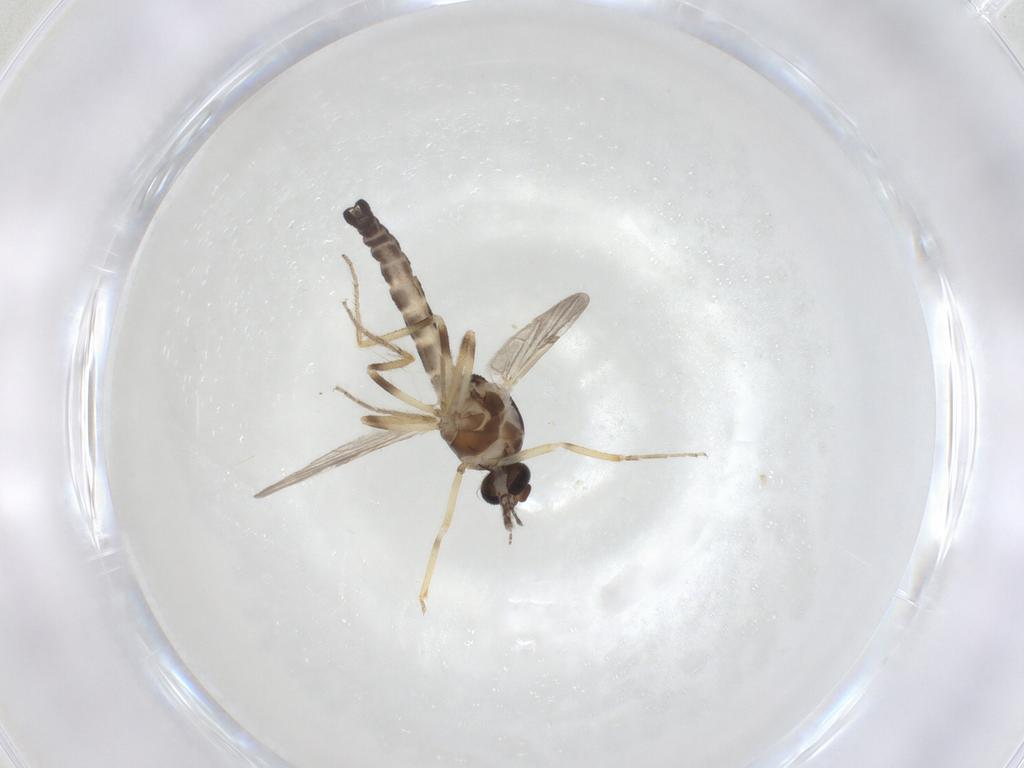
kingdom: Animalia
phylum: Arthropoda
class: Insecta
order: Diptera
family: Ceratopogonidae
